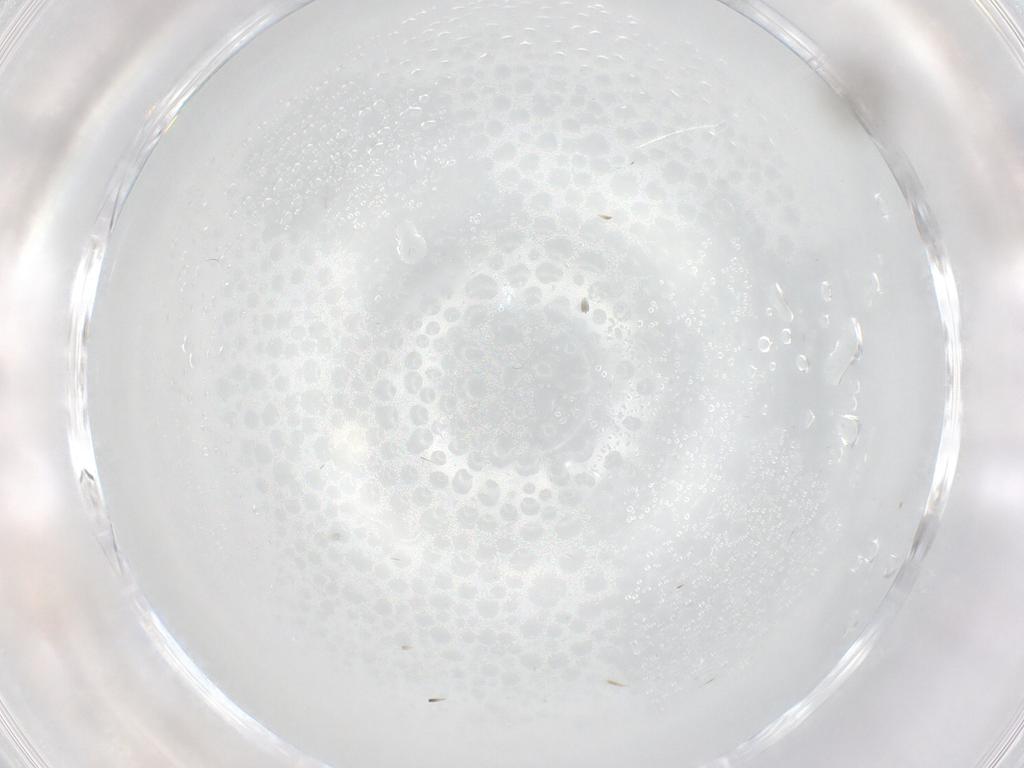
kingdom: Animalia
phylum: Arthropoda
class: Insecta
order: Diptera
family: Cecidomyiidae
